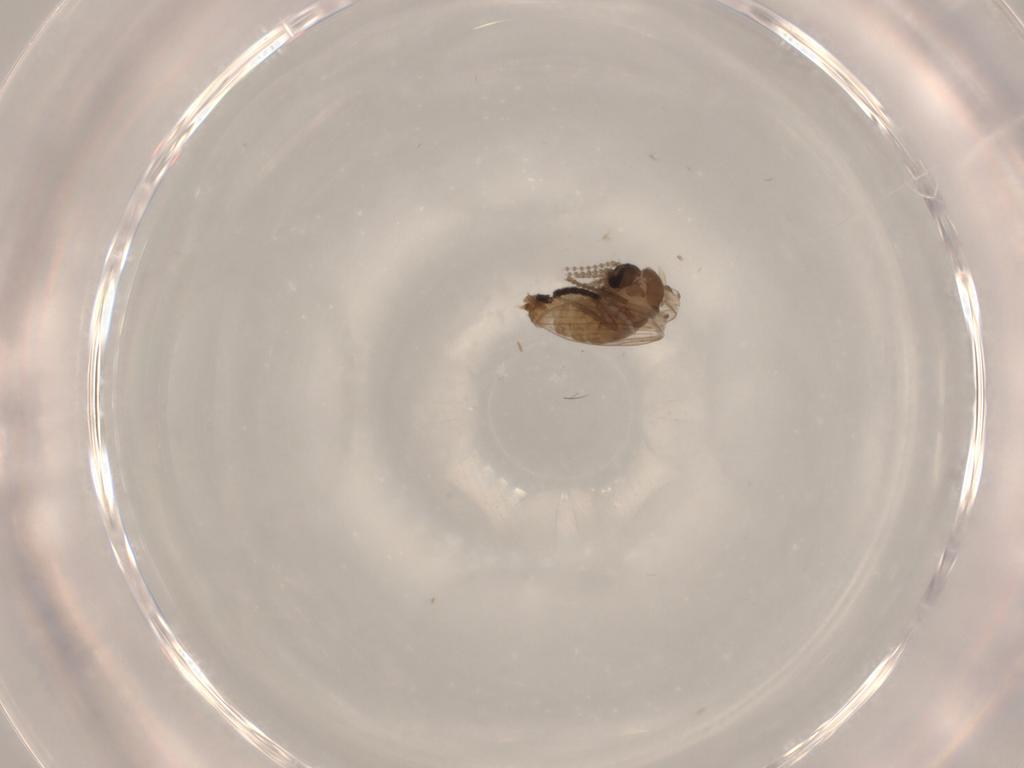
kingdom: Animalia
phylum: Arthropoda
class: Insecta
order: Diptera
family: Psychodidae
